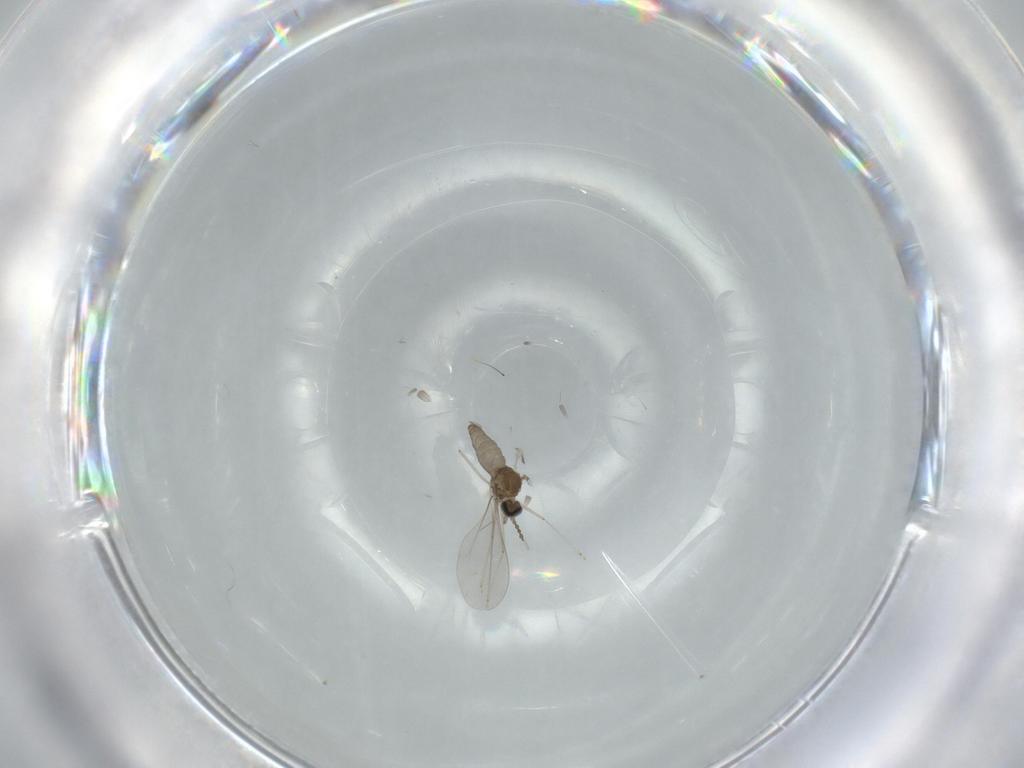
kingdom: Animalia
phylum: Arthropoda
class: Insecta
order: Diptera
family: Cecidomyiidae
